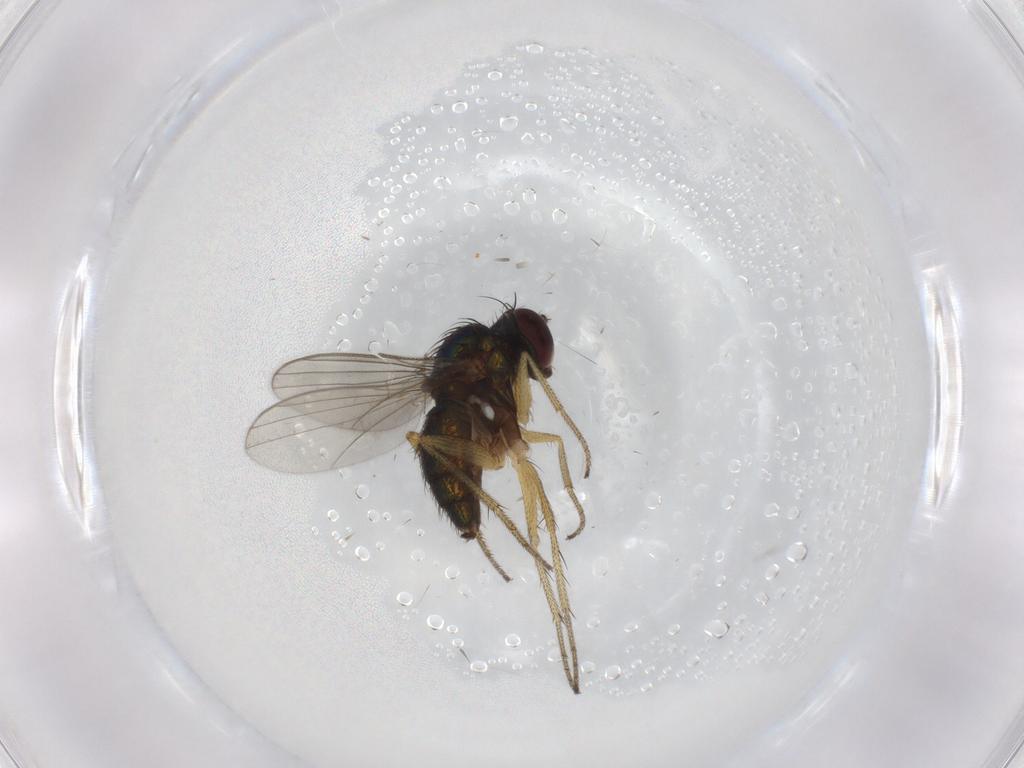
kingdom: Animalia
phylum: Arthropoda
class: Insecta
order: Diptera
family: Chironomidae
